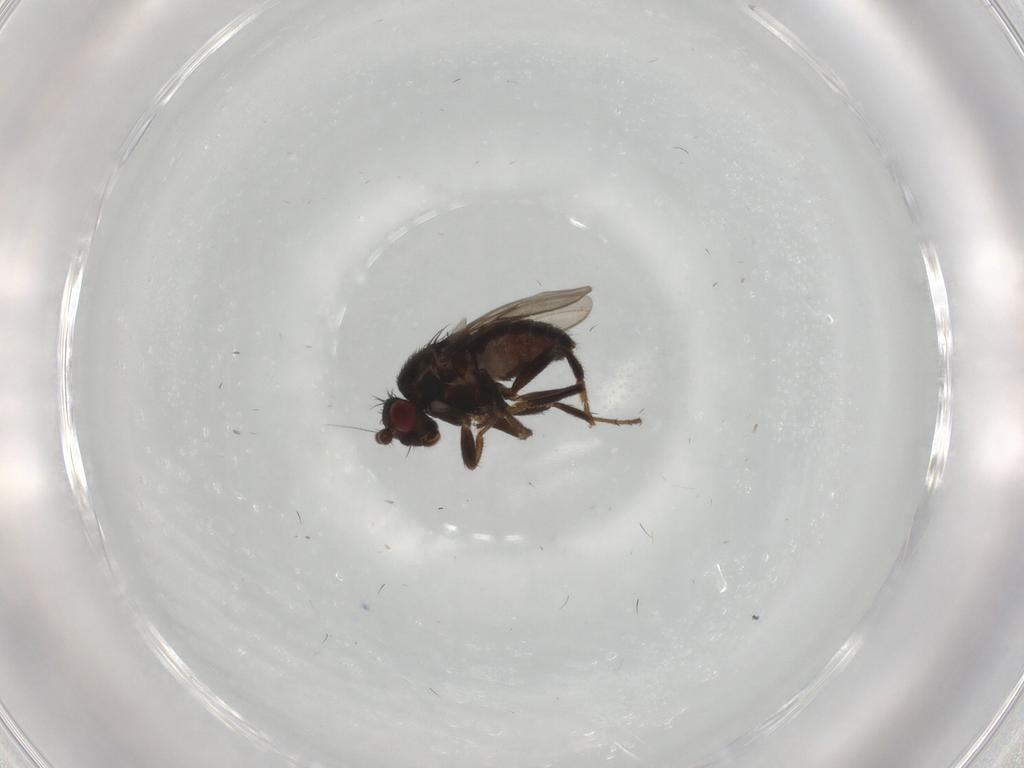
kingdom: Animalia
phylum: Arthropoda
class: Insecta
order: Diptera
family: Sphaeroceridae
